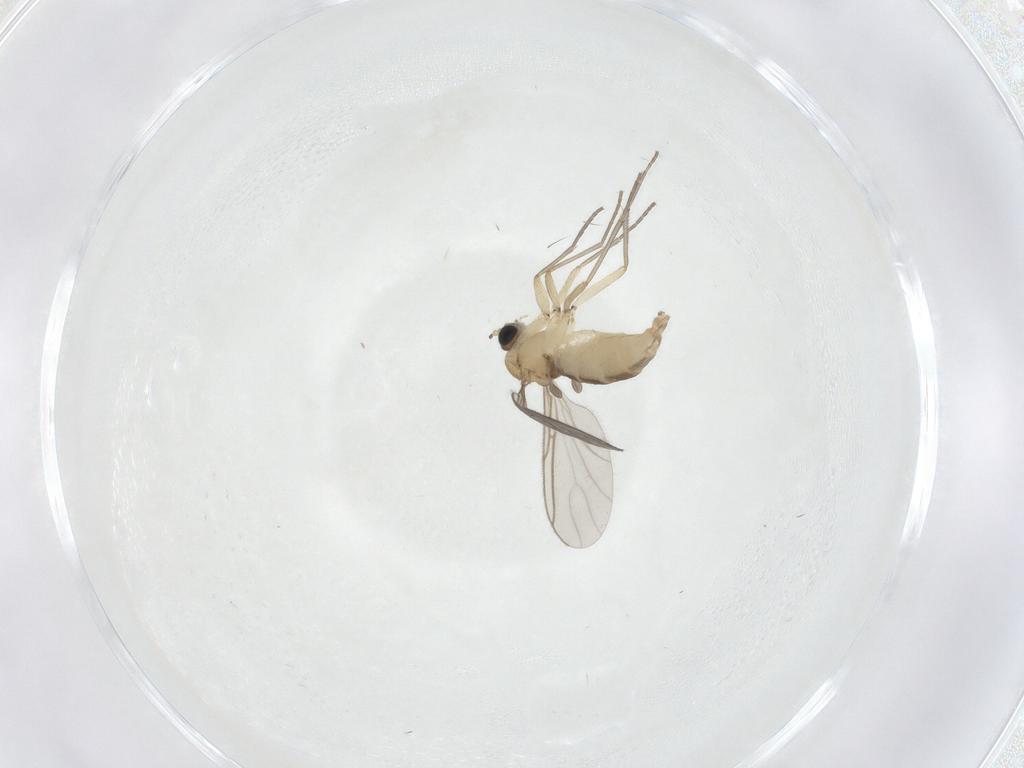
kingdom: Animalia
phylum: Arthropoda
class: Insecta
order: Diptera
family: Sciaridae
